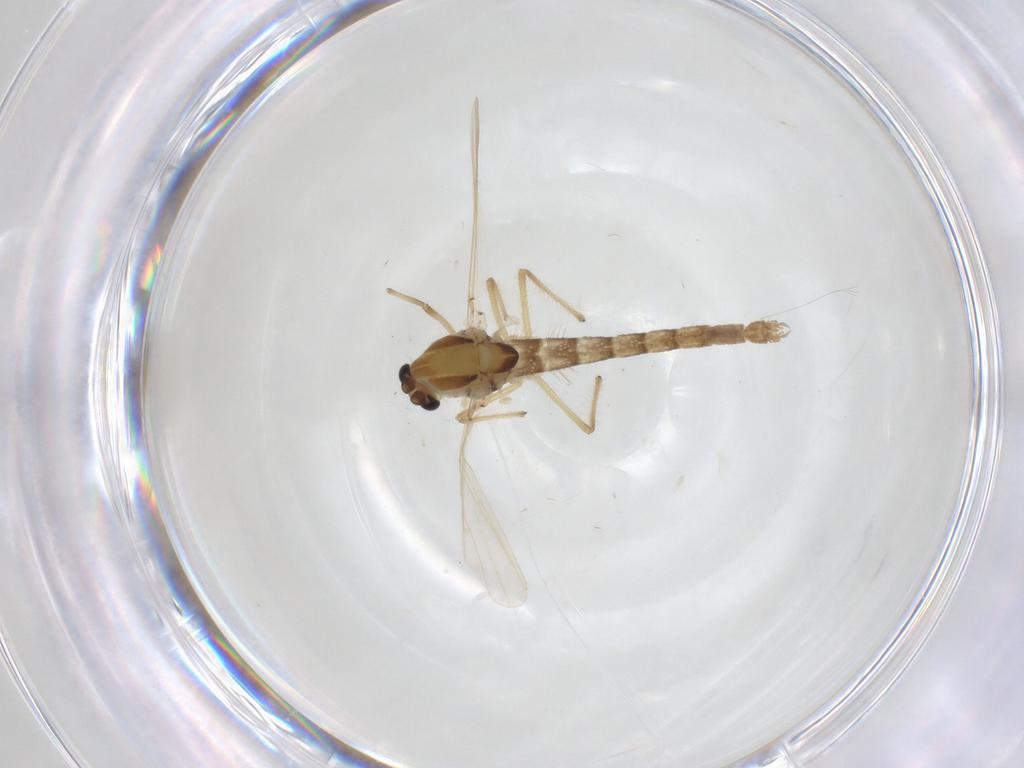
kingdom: Animalia
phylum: Arthropoda
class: Insecta
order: Diptera
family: Chironomidae
